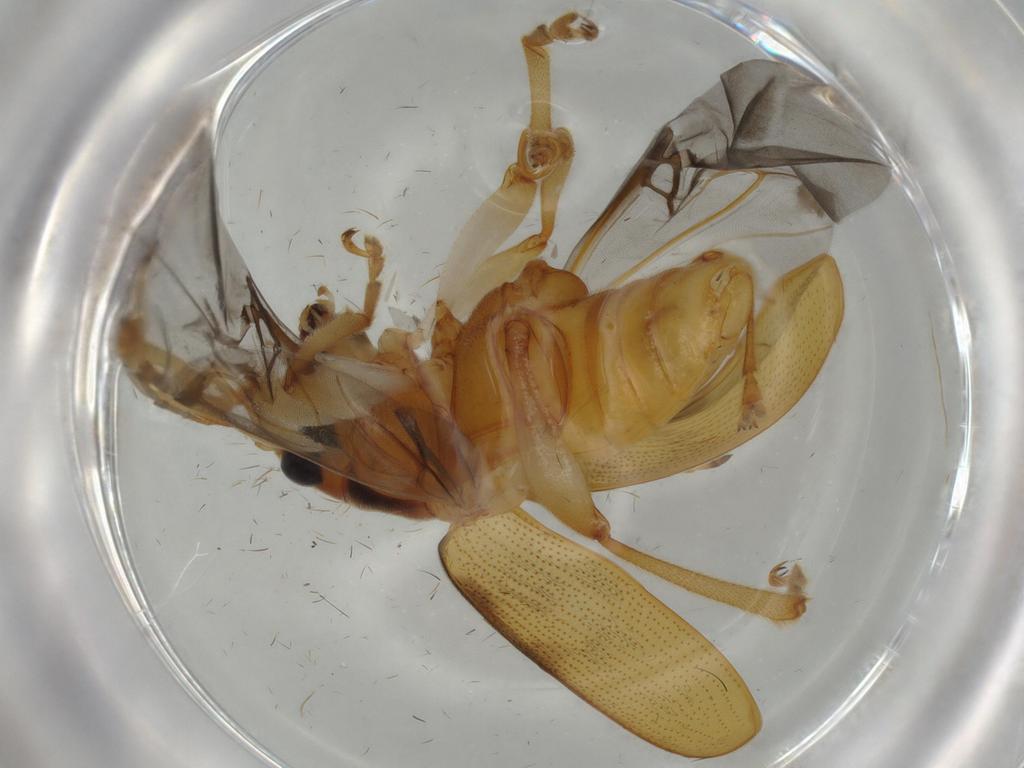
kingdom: Animalia
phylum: Arthropoda
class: Insecta
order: Coleoptera
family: Chrysomelidae
